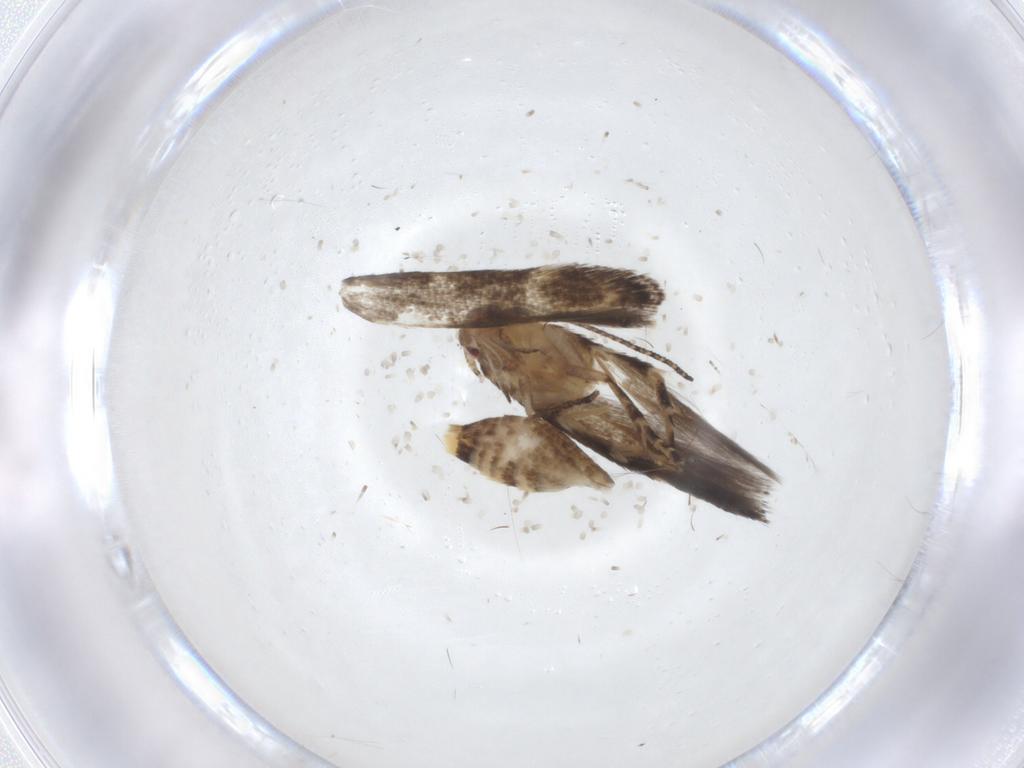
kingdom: Animalia
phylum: Arthropoda
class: Insecta
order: Lepidoptera
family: Momphidae
